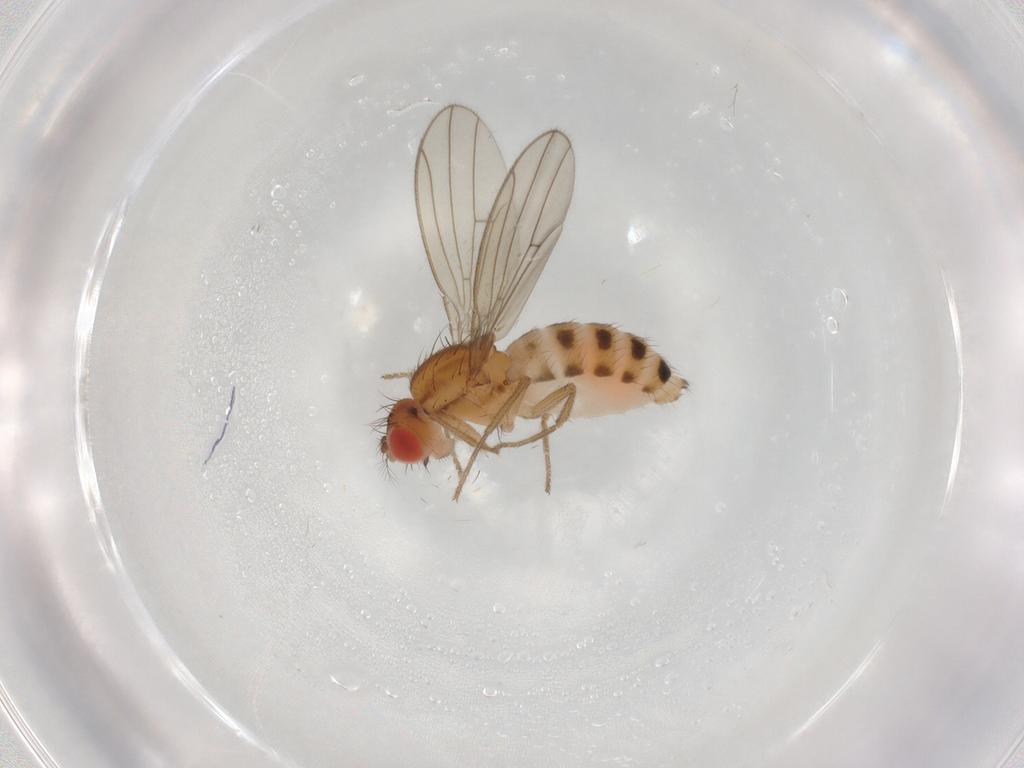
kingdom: Animalia
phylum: Arthropoda
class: Insecta
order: Diptera
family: Drosophilidae
